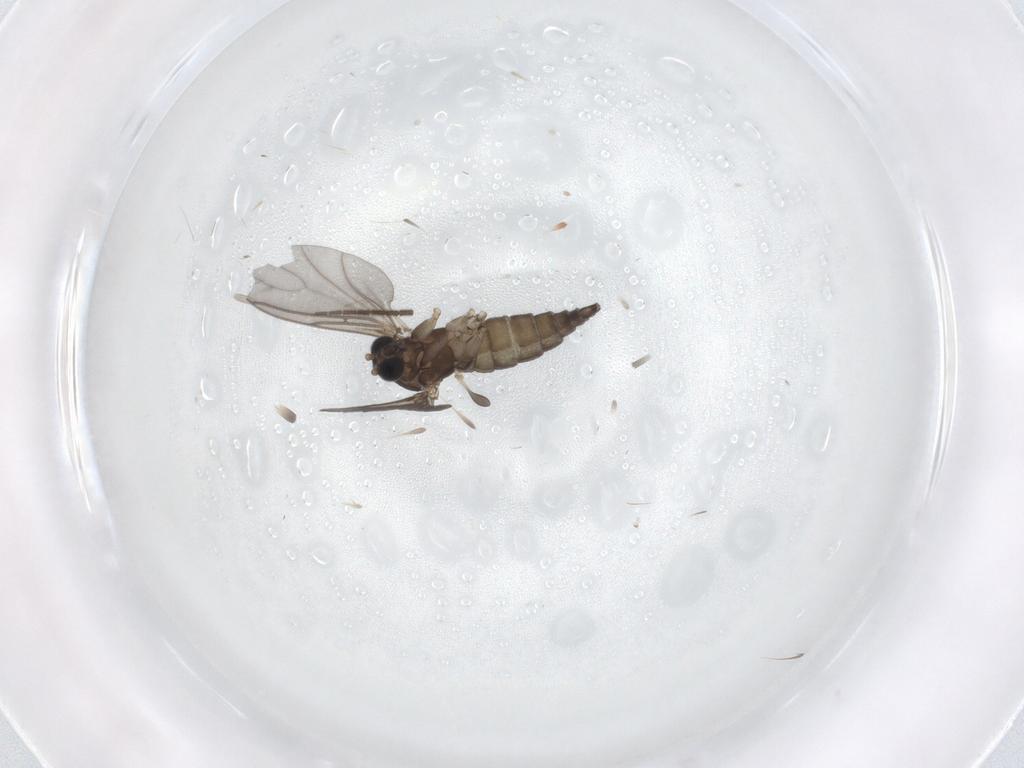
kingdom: Animalia
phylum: Arthropoda
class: Insecta
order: Diptera
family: Sciaridae
